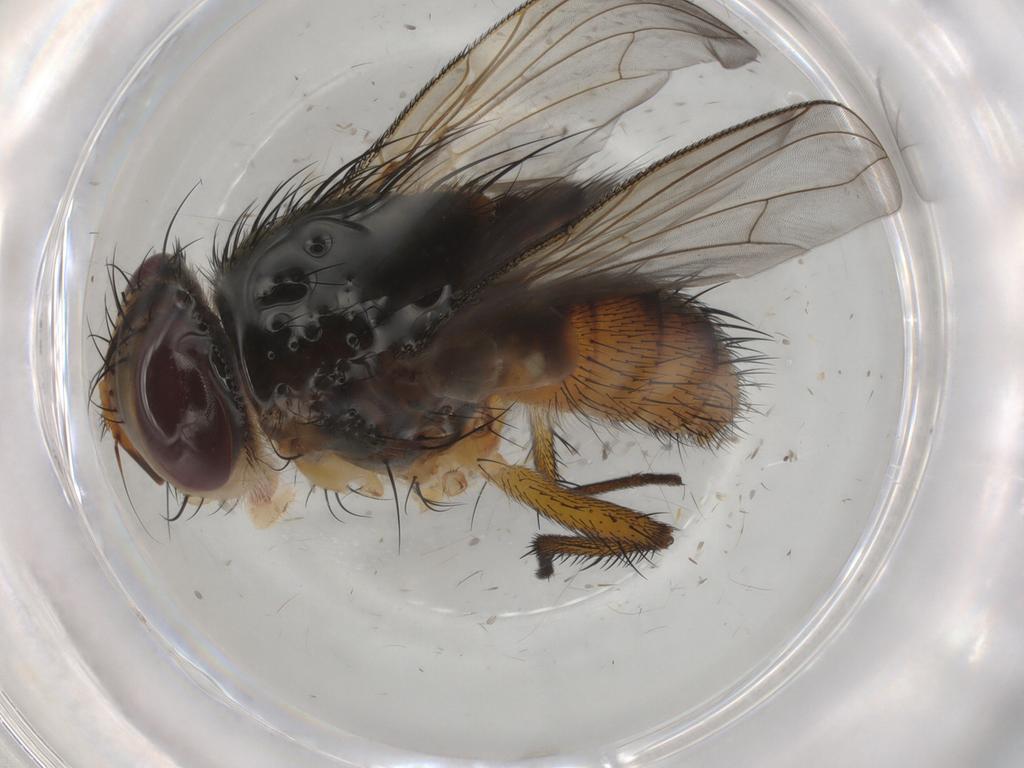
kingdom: Animalia
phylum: Arthropoda
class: Insecta
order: Diptera
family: Tachinidae
